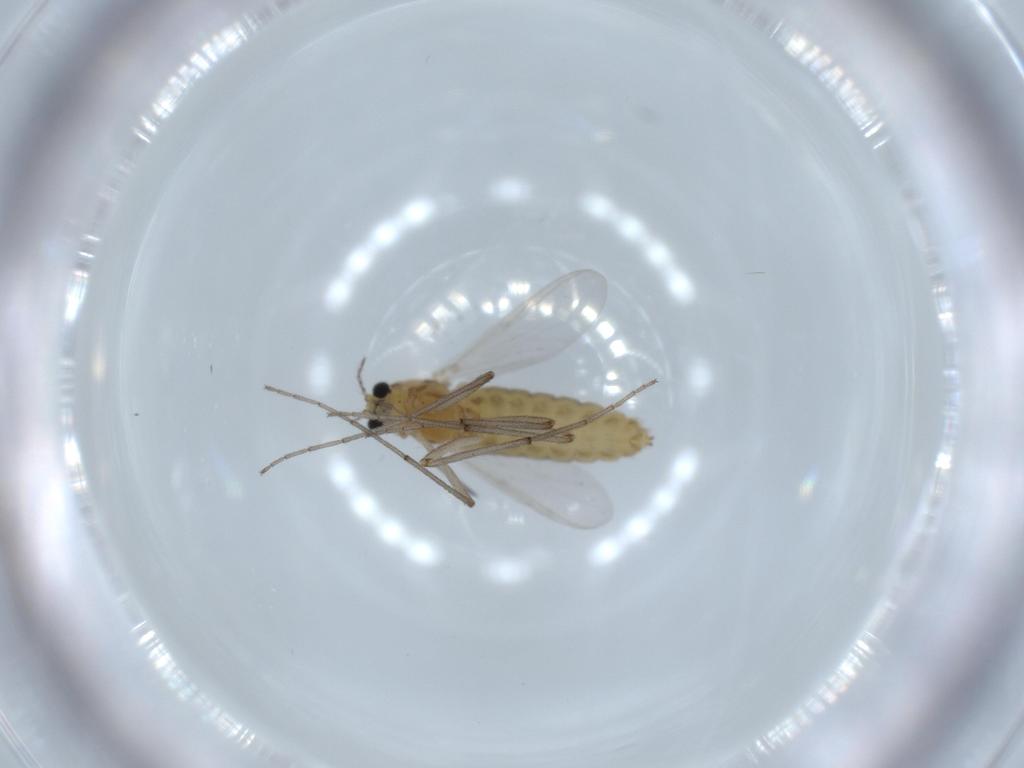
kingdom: Animalia
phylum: Arthropoda
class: Insecta
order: Diptera
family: Chironomidae
